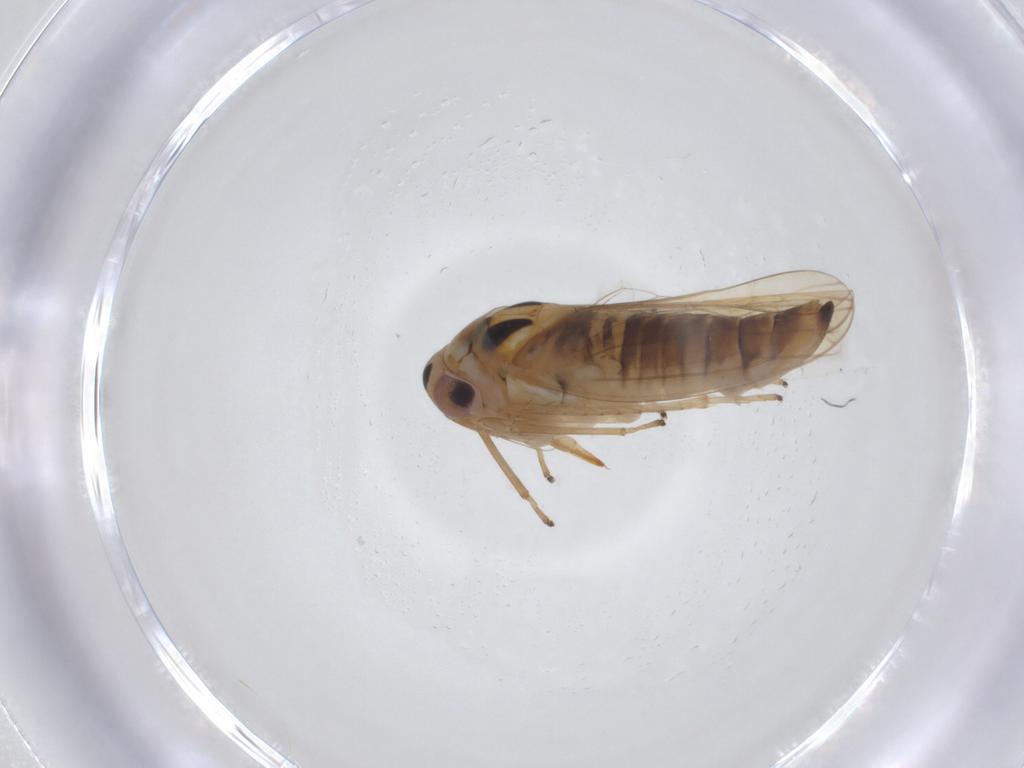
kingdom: Animalia
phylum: Arthropoda
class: Insecta
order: Hemiptera
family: Cicadellidae
